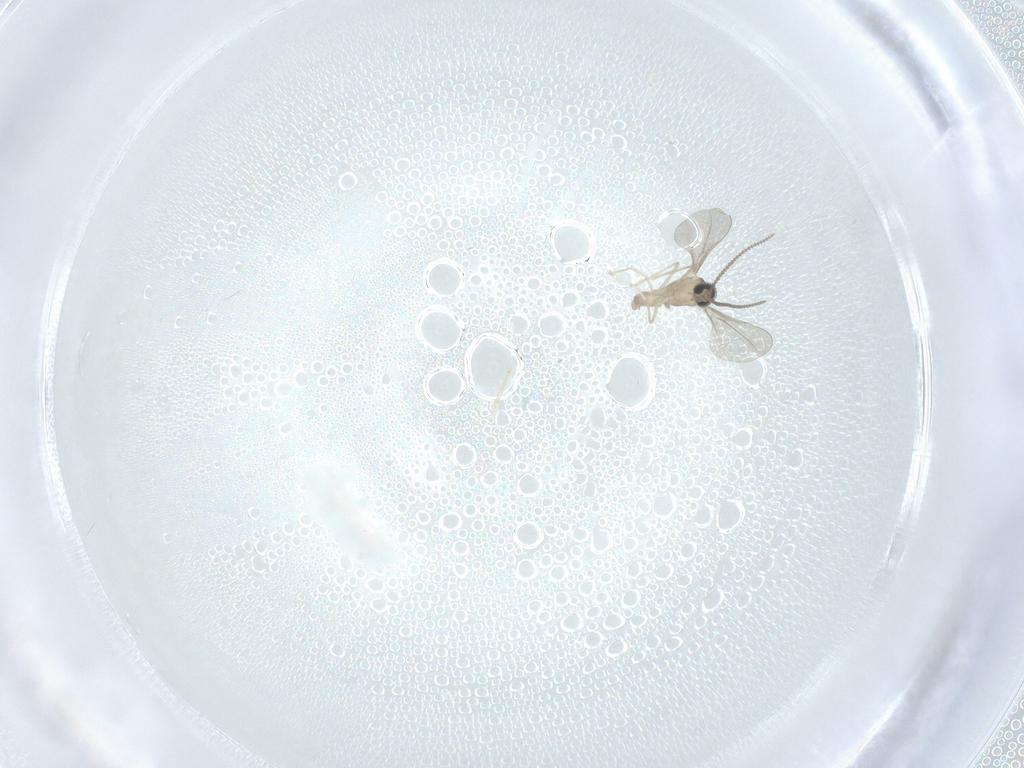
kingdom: Animalia
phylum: Arthropoda
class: Insecta
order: Diptera
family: Cecidomyiidae
